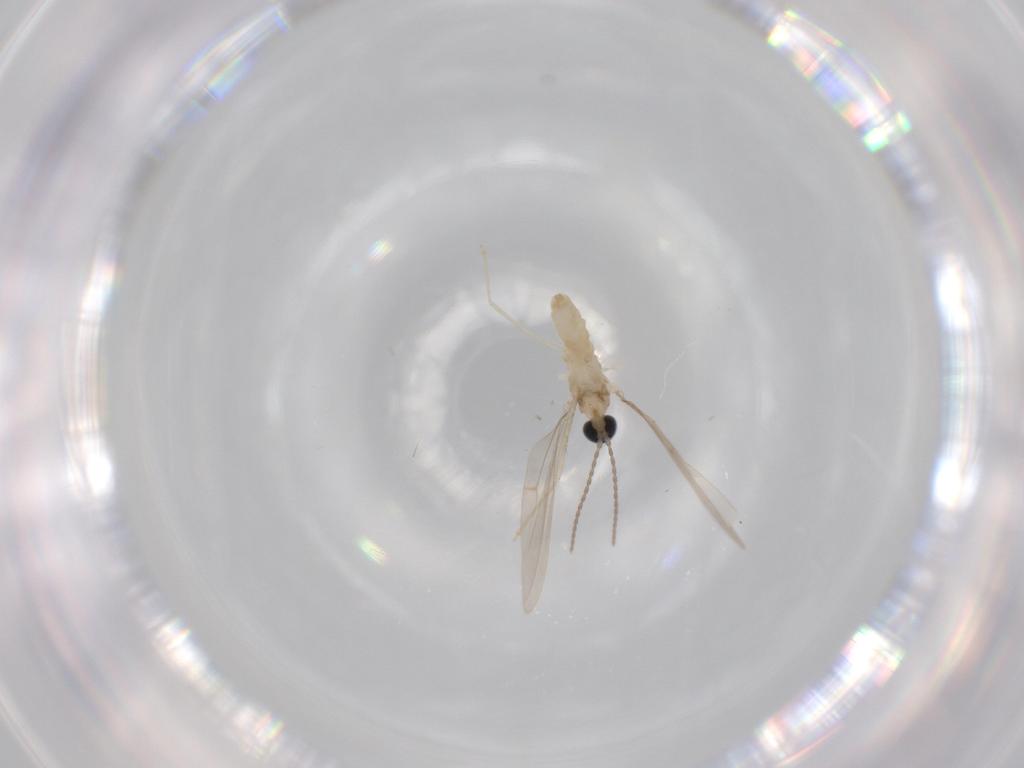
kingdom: Animalia
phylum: Arthropoda
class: Insecta
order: Diptera
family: Cecidomyiidae
